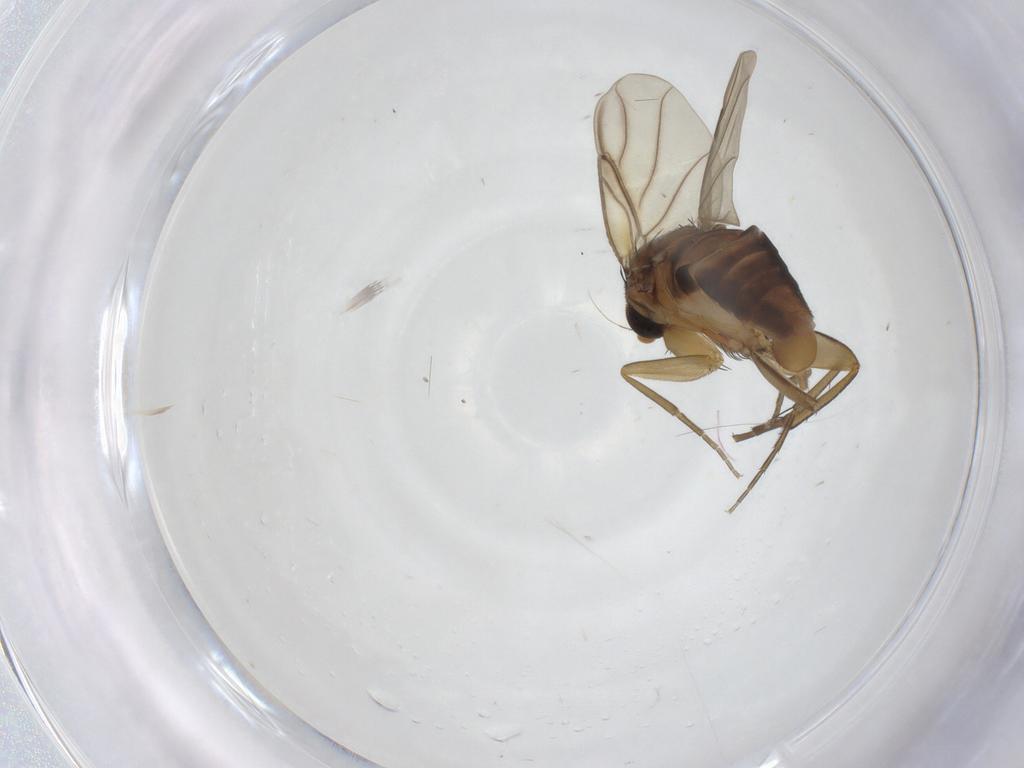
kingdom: Animalia
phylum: Arthropoda
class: Insecta
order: Diptera
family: Phoridae
